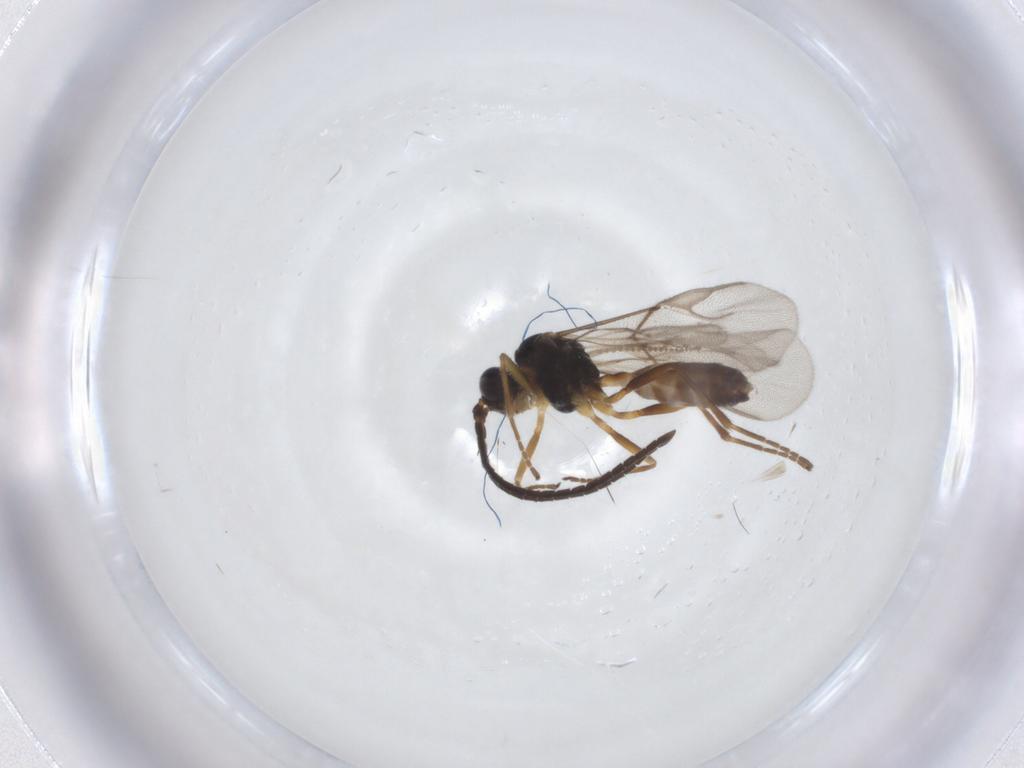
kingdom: Animalia
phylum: Arthropoda
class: Insecta
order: Hymenoptera
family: Braconidae
